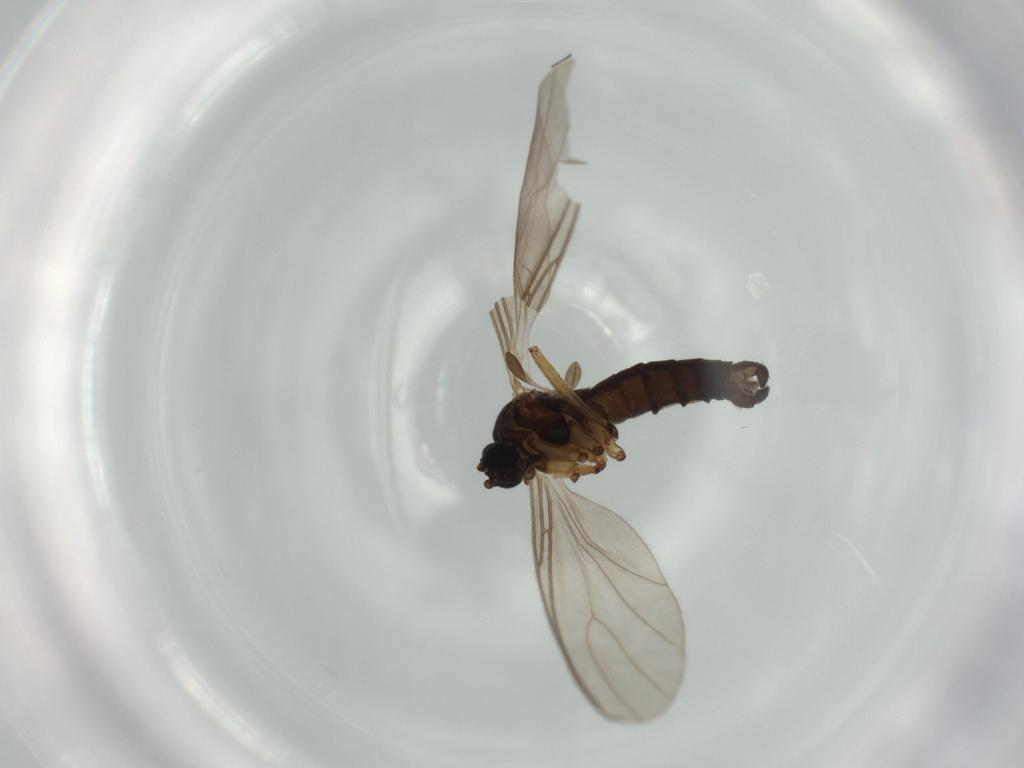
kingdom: Animalia
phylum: Arthropoda
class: Insecta
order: Diptera
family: Sciaridae
